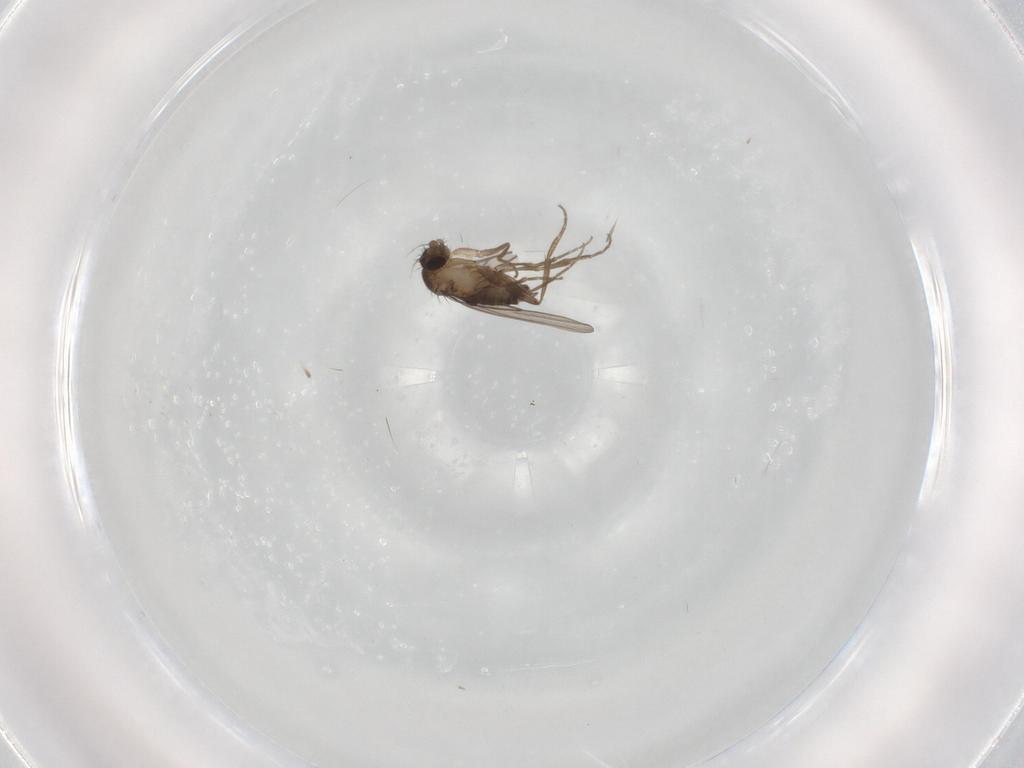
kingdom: Animalia
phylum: Arthropoda
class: Insecta
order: Diptera
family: Phoridae
